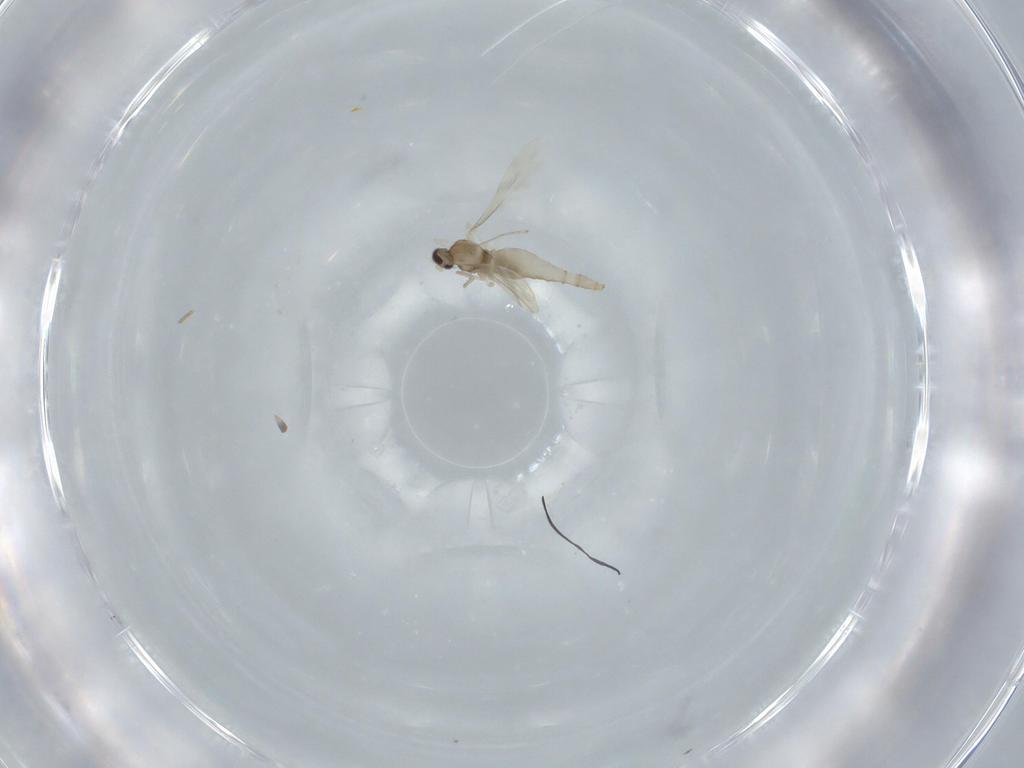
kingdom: Animalia
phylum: Arthropoda
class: Insecta
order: Diptera
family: Cecidomyiidae
